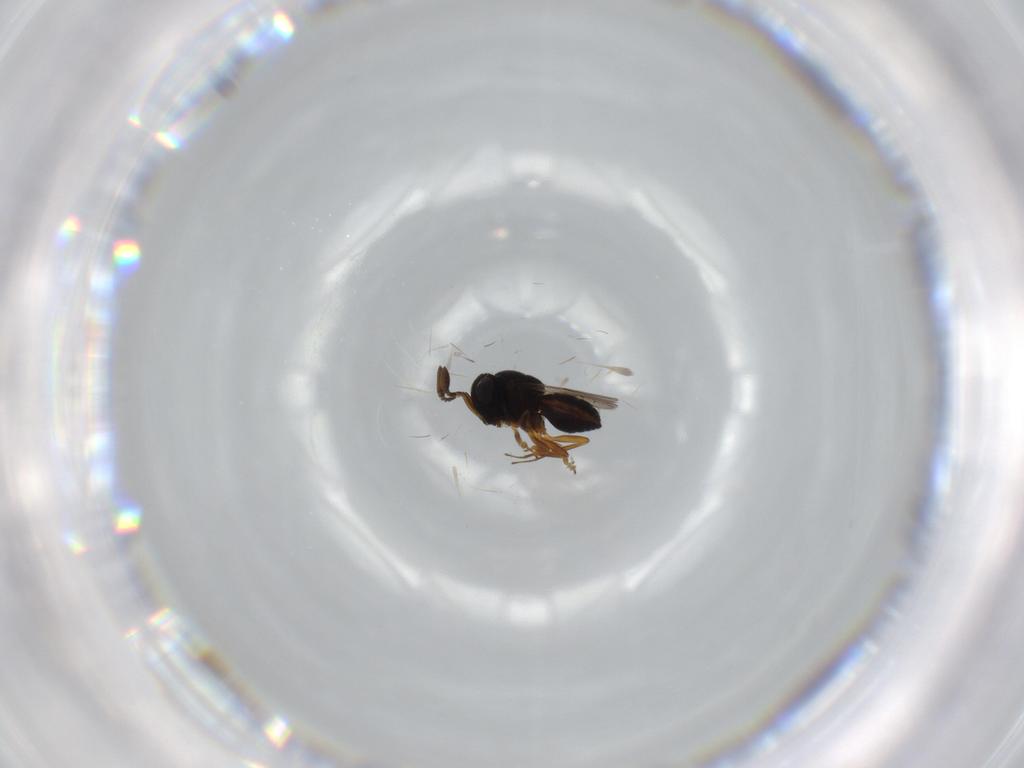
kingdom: Animalia
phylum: Arthropoda
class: Insecta
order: Coleoptera
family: Curculionidae
